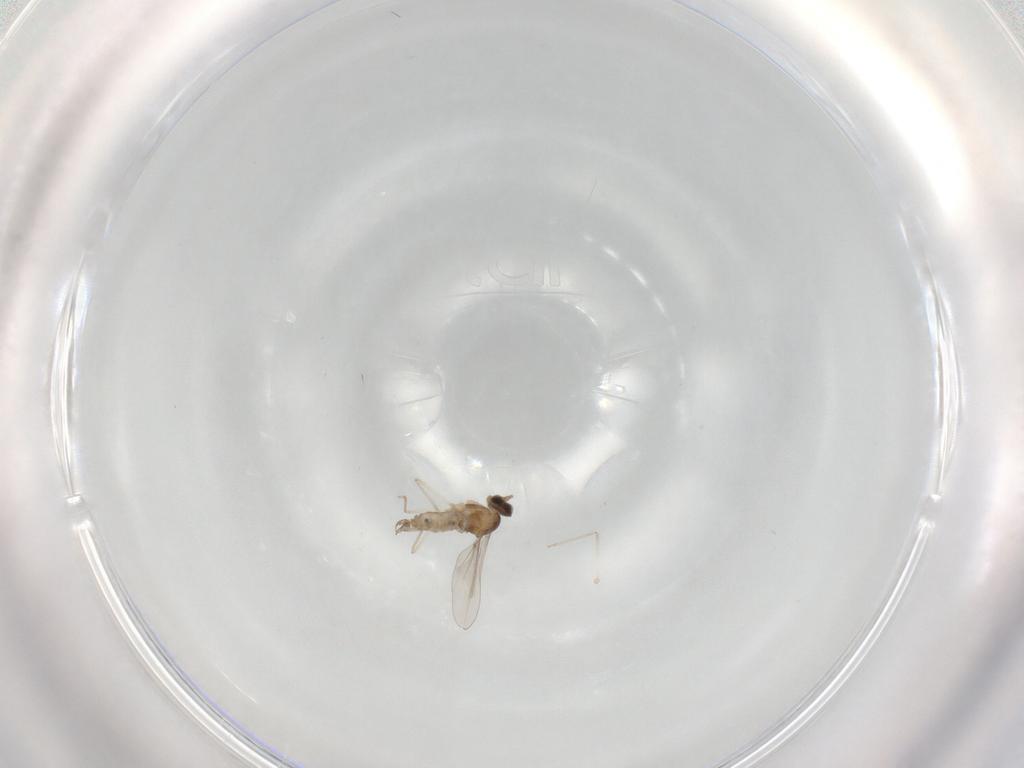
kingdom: Animalia
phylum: Arthropoda
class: Insecta
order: Diptera
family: Cecidomyiidae
